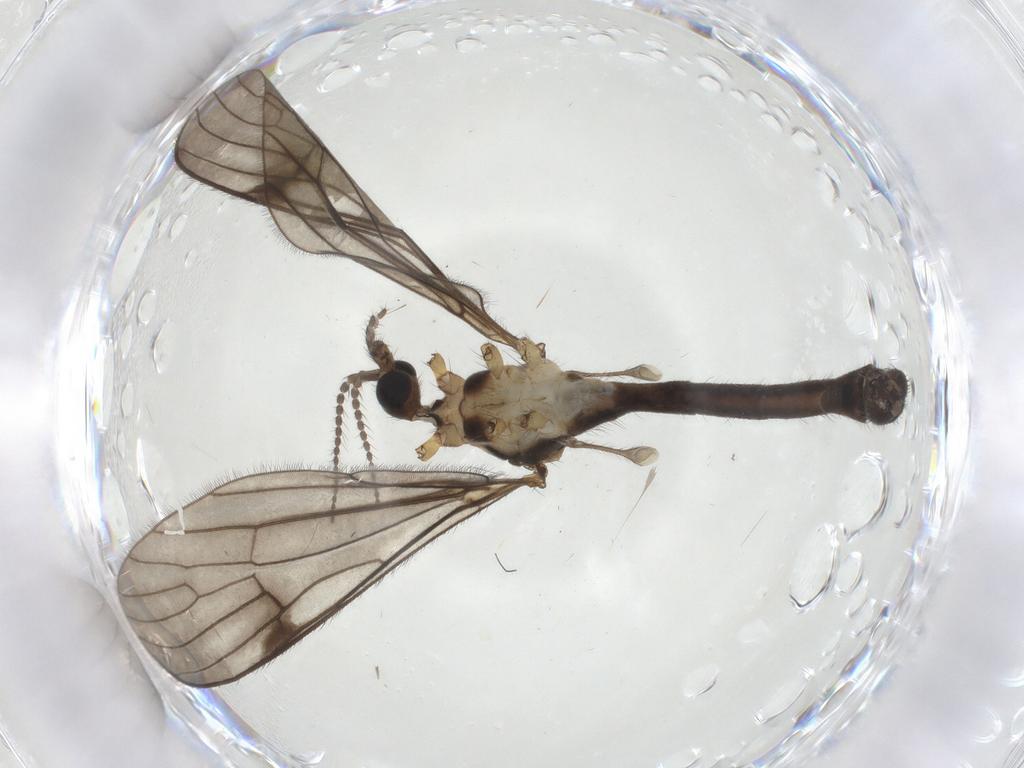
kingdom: Animalia
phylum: Arthropoda
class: Insecta
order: Diptera
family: Limoniidae
